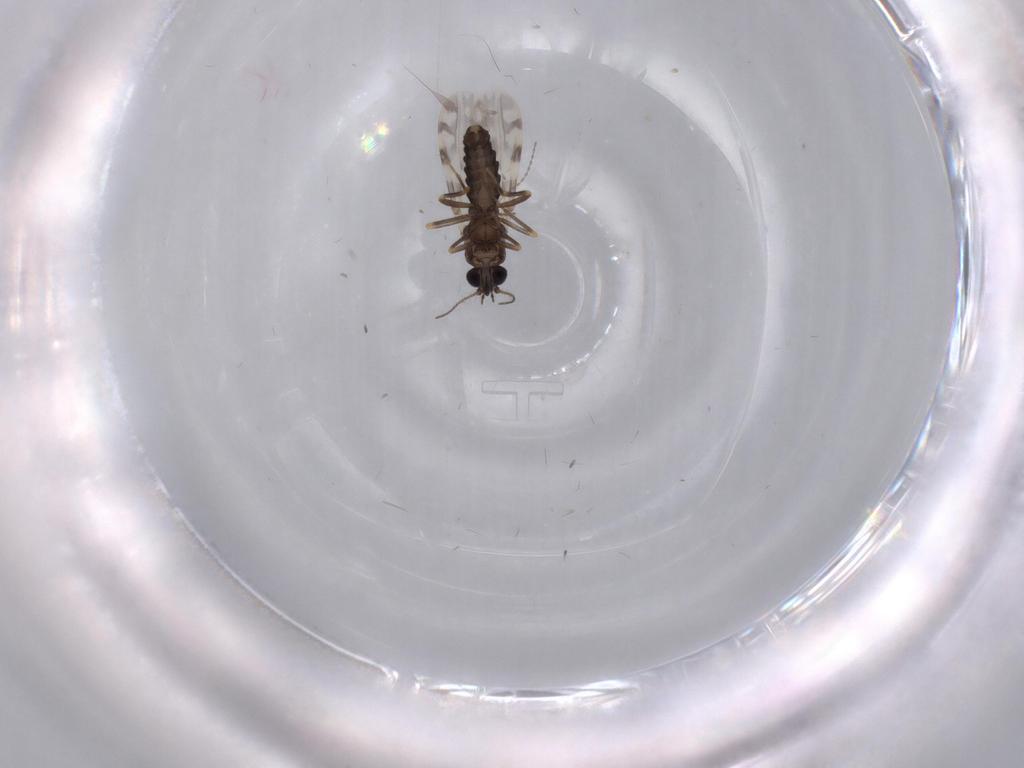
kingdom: Animalia
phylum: Arthropoda
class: Insecta
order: Diptera
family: Ceratopogonidae
